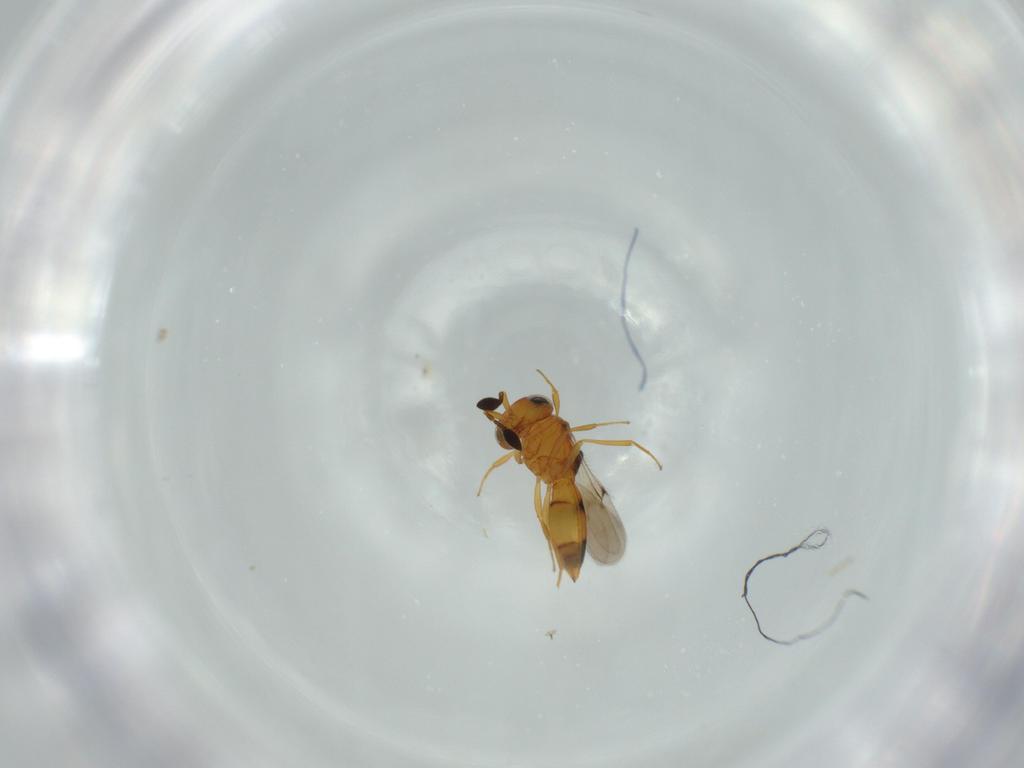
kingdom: Animalia
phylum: Arthropoda
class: Insecta
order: Hymenoptera
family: Scelionidae
